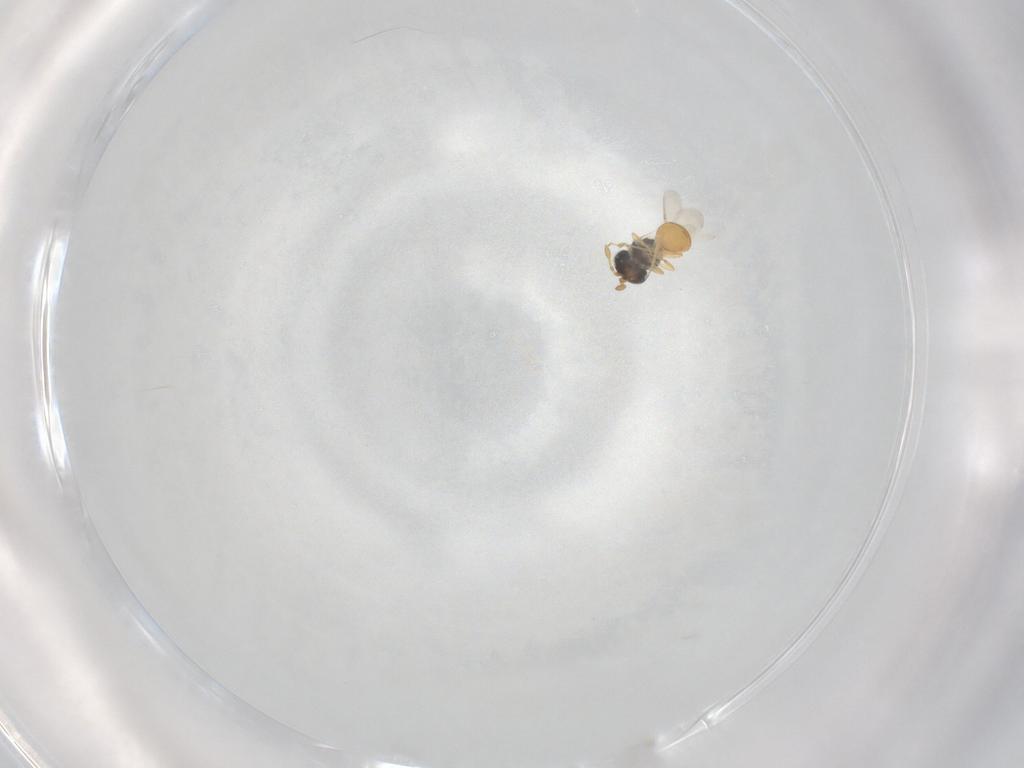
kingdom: Animalia
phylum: Arthropoda
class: Insecta
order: Hymenoptera
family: Scelionidae
